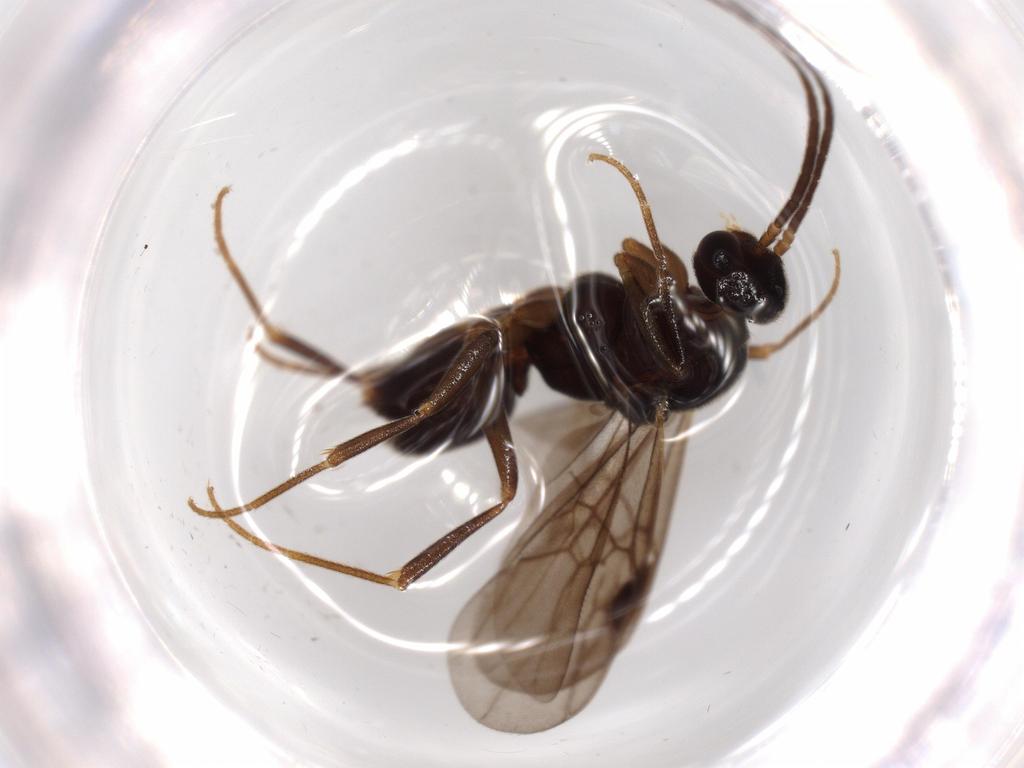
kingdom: Animalia
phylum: Arthropoda
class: Insecta
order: Hymenoptera
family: Formicidae
